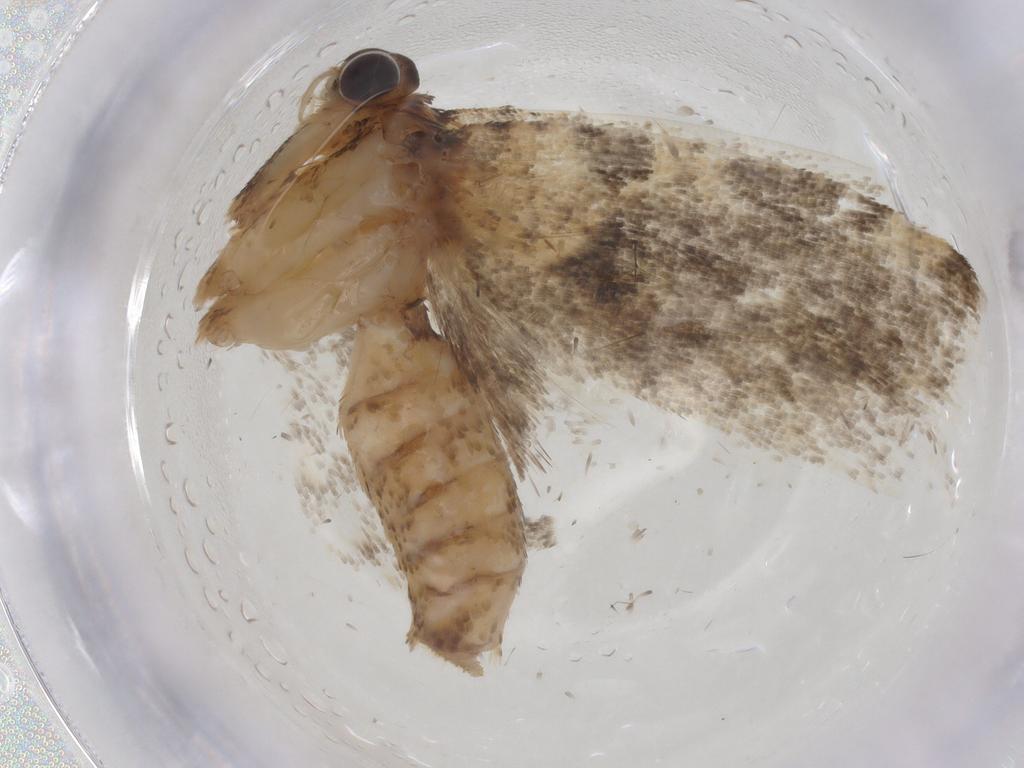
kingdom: Animalia
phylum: Arthropoda
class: Insecta
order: Lepidoptera
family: Tortricidae
